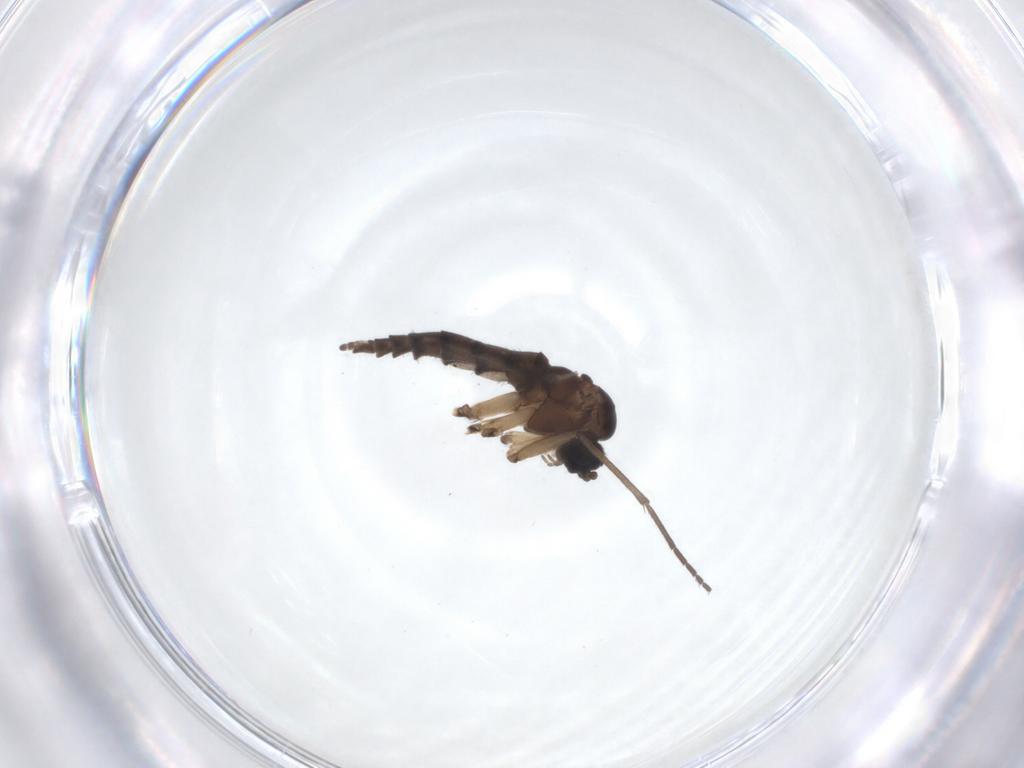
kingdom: Animalia
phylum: Arthropoda
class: Insecta
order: Diptera
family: Sciaridae
